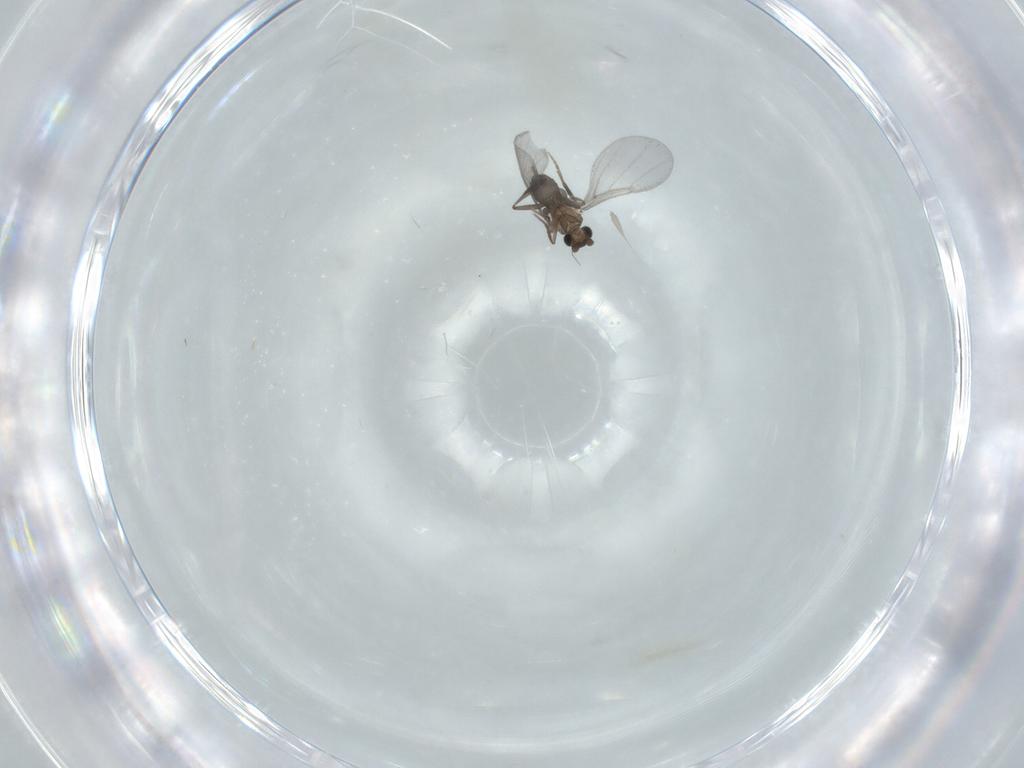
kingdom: Animalia
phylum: Arthropoda
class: Insecta
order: Diptera
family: Phoridae
